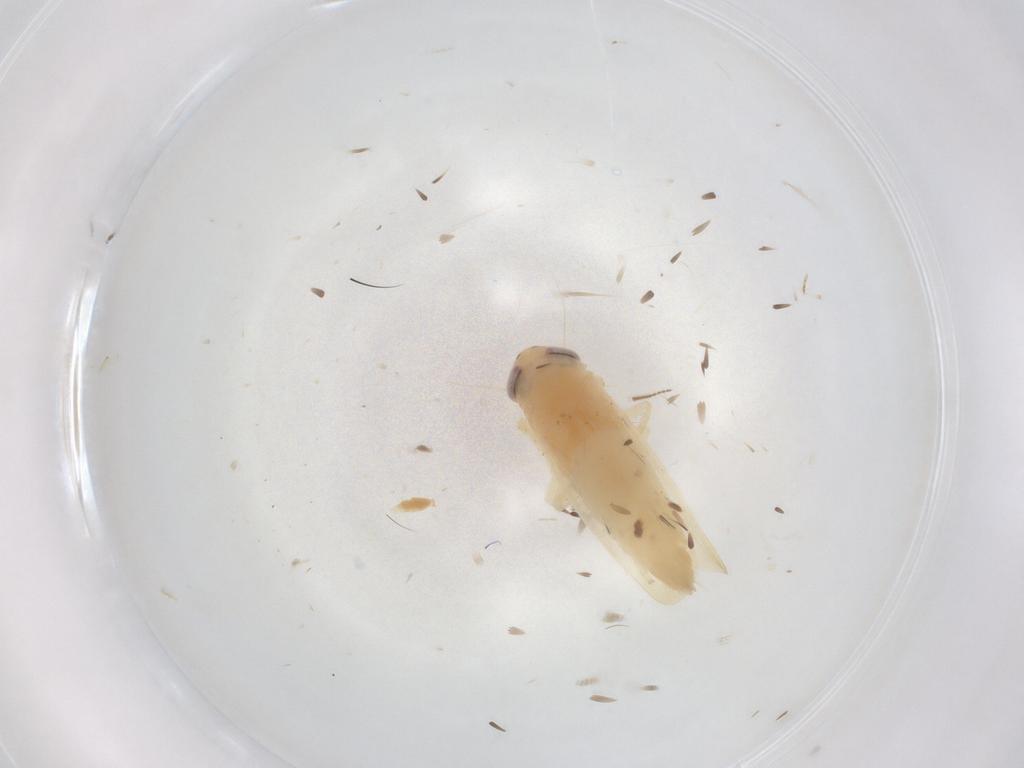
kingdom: Animalia
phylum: Arthropoda
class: Insecta
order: Hemiptera
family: Cicadellidae
